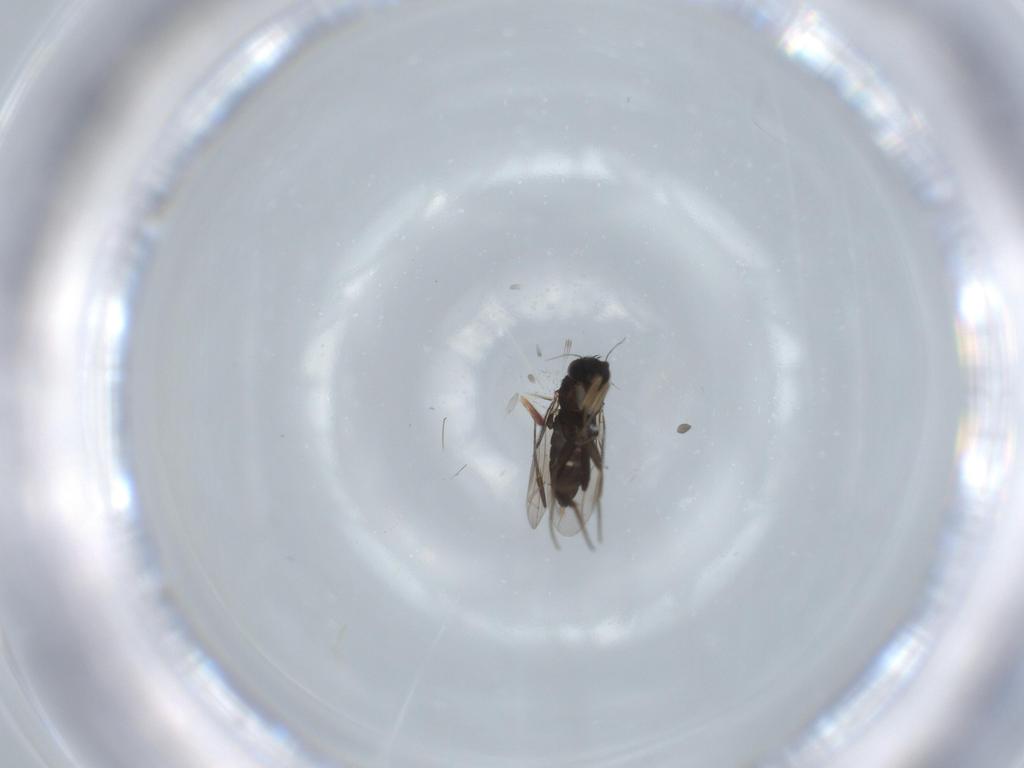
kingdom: Animalia
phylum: Arthropoda
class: Insecta
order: Diptera
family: Phoridae
